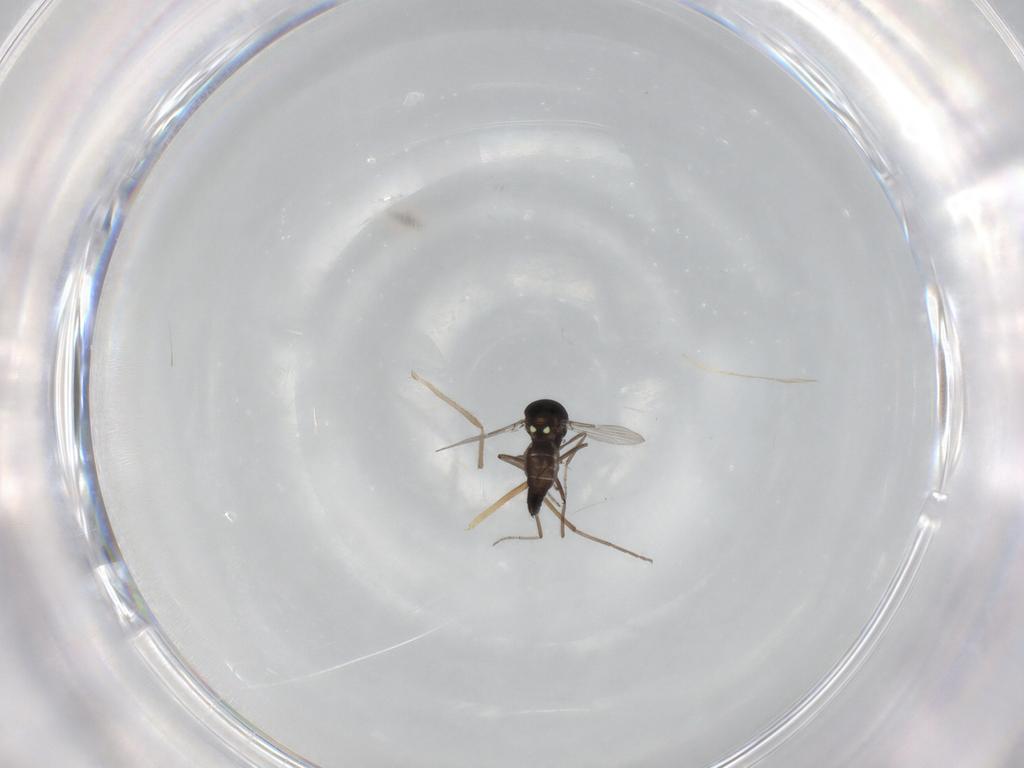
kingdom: Animalia
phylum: Arthropoda
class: Insecta
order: Diptera
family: Ceratopogonidae
